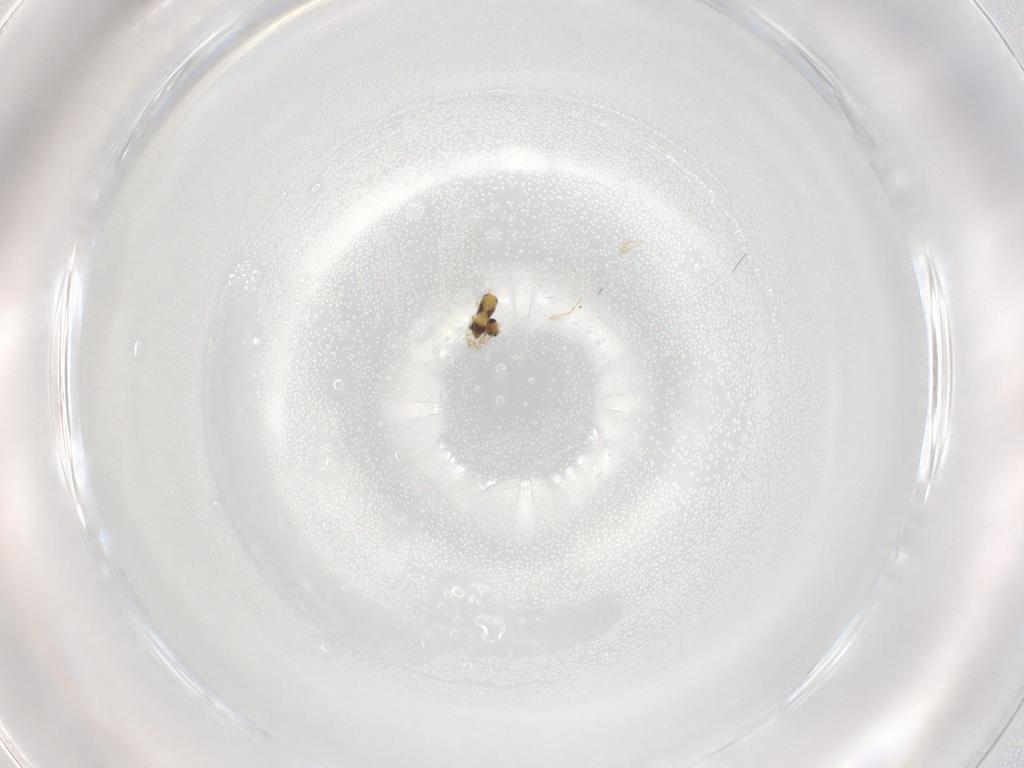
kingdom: Animalia
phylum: Arthropoda
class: Insecta
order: Hymenoptera
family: Trichogrammatidae
